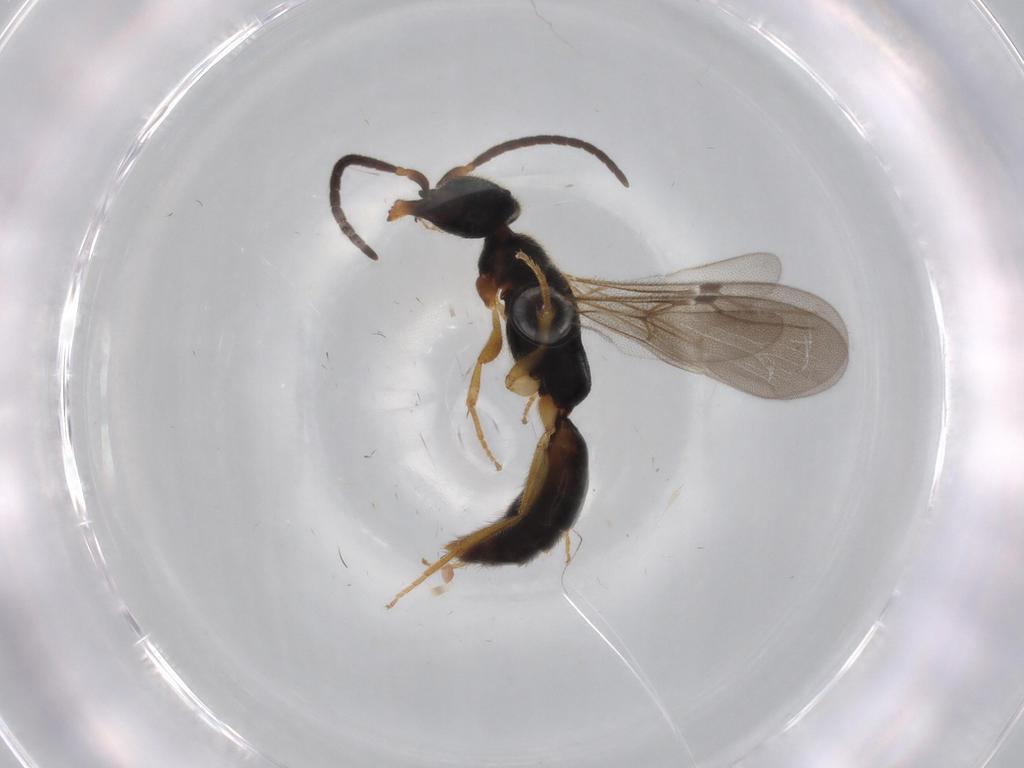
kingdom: Animalia
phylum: Arthropoda
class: Insecta
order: Hymenoptera
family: Bethylidae
